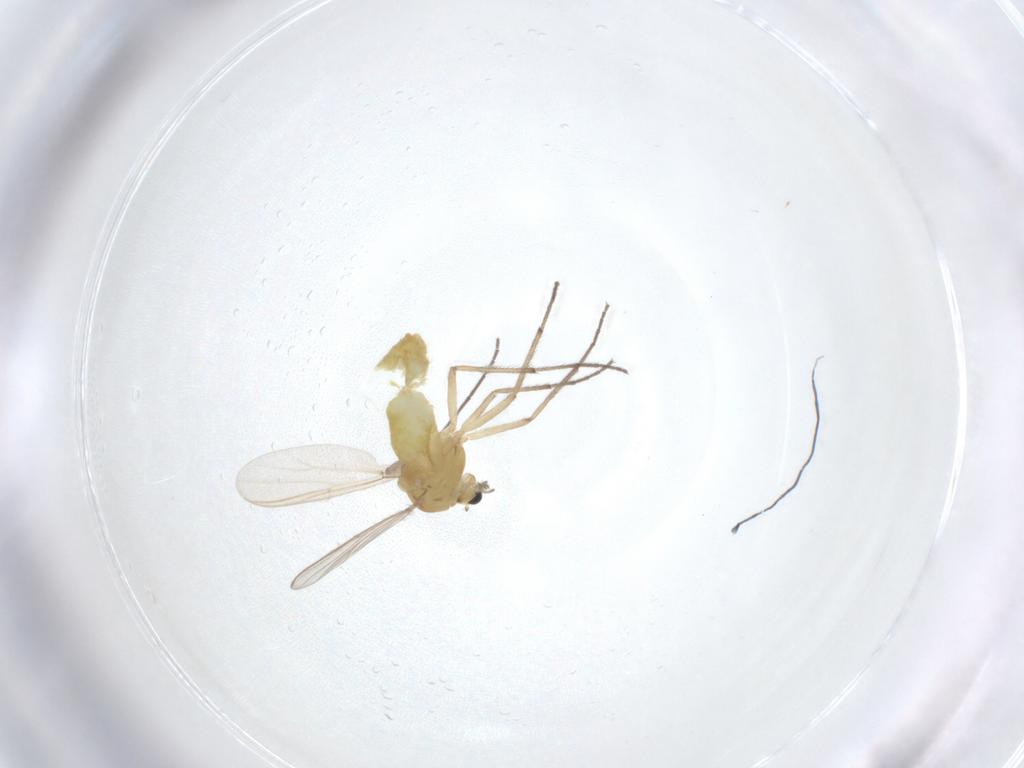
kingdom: Animalia
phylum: Arthropoda
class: Insecta
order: Diptera
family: Chironomidae
